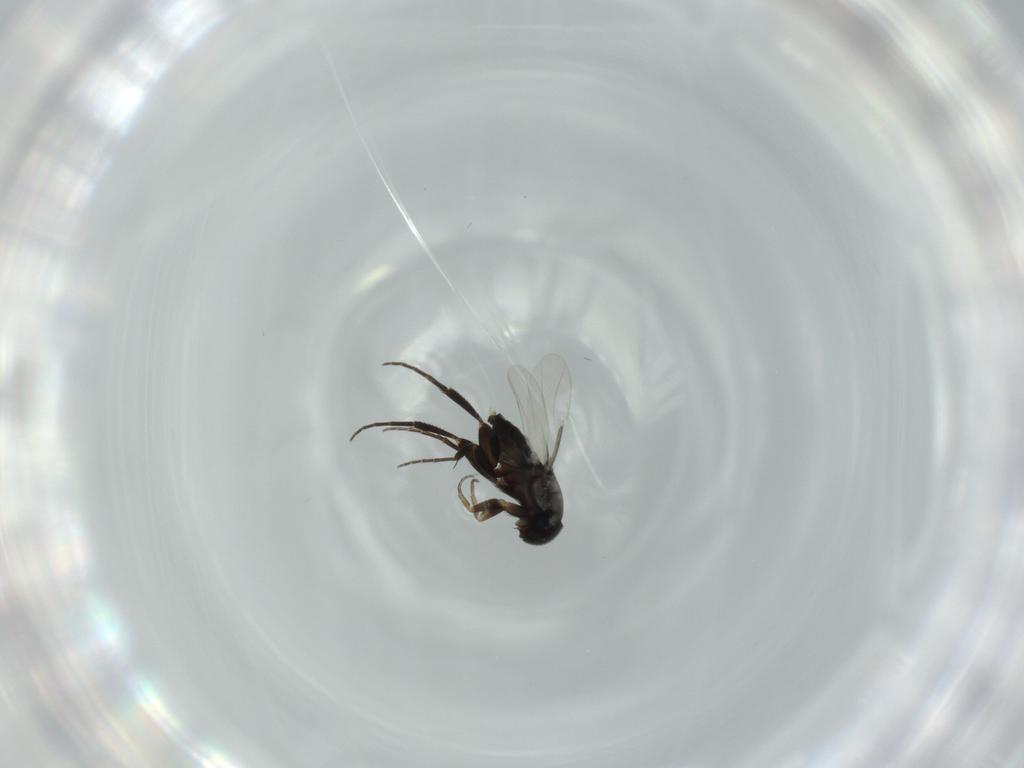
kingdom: Animalia
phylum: Arthropoda
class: Insecta
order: Diptera
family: Phoridae
